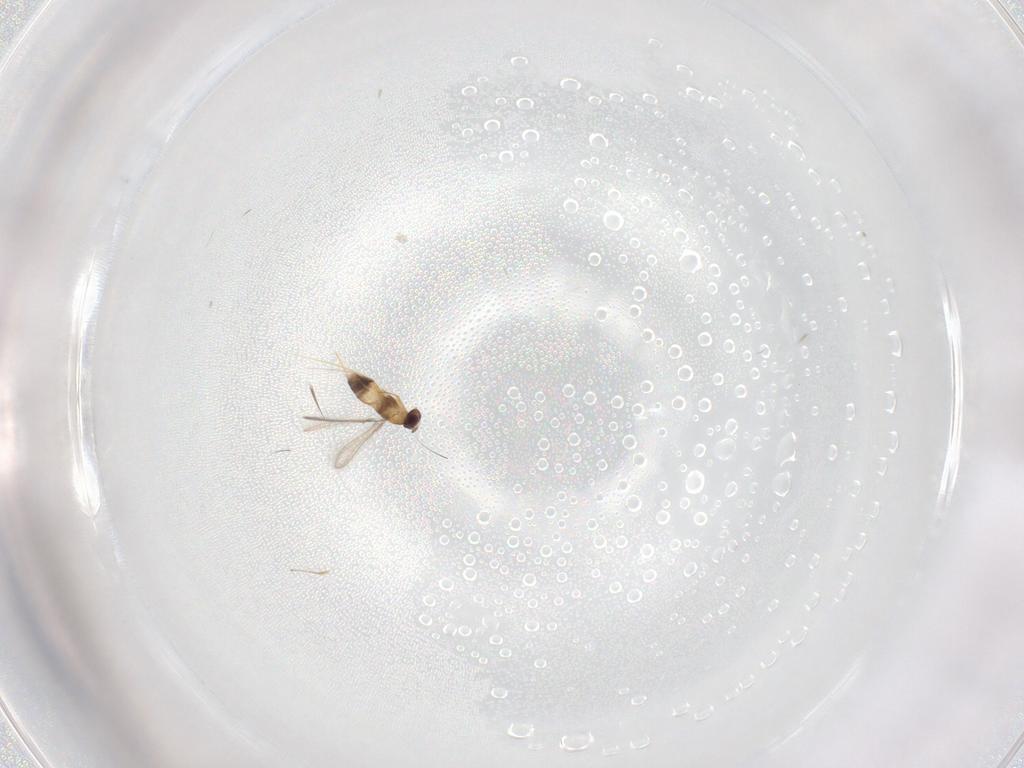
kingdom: Animalia
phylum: Arthropoda
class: Insecta
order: Hymenoptera
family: Mymaridae
